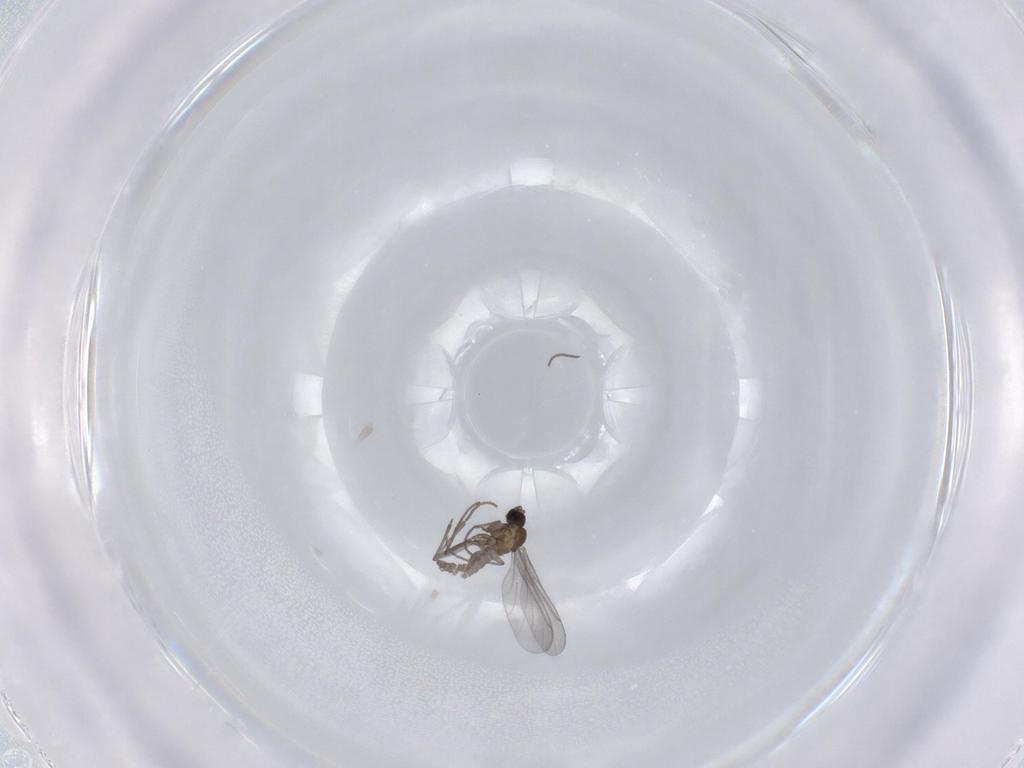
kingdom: Animalia
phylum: Arthropoda
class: Insecta
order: Diptera
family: Sciaridae
